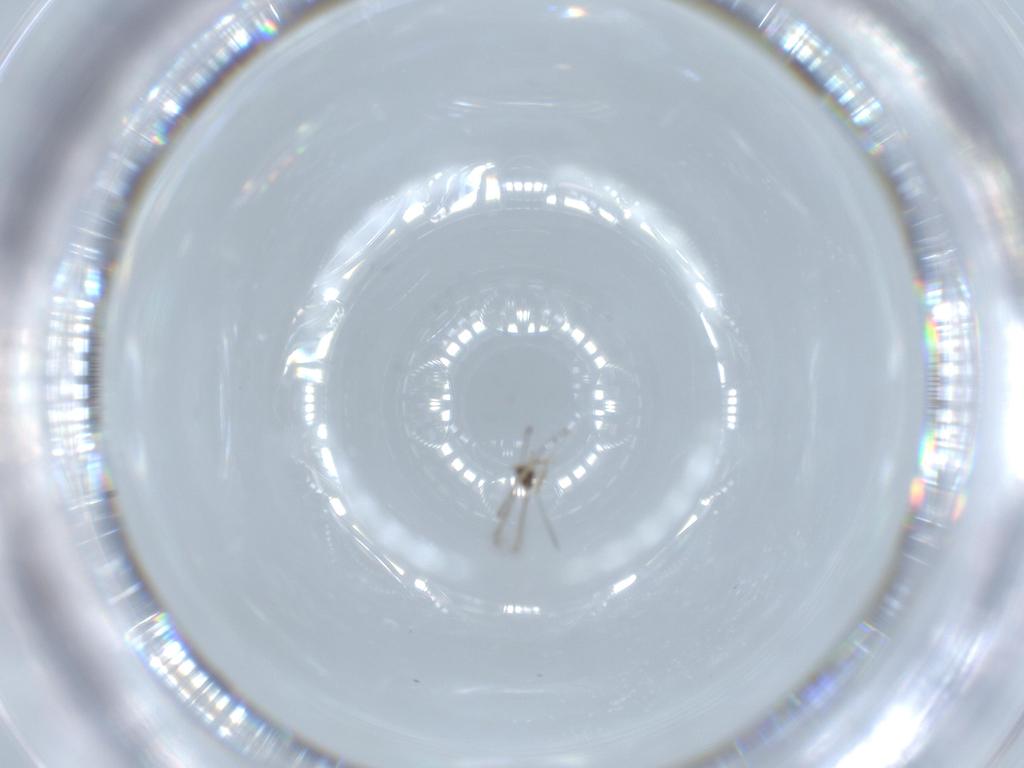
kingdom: Animalia
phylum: Arthropoda
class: Insecta
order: Hymenoptera
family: Mymaridae
